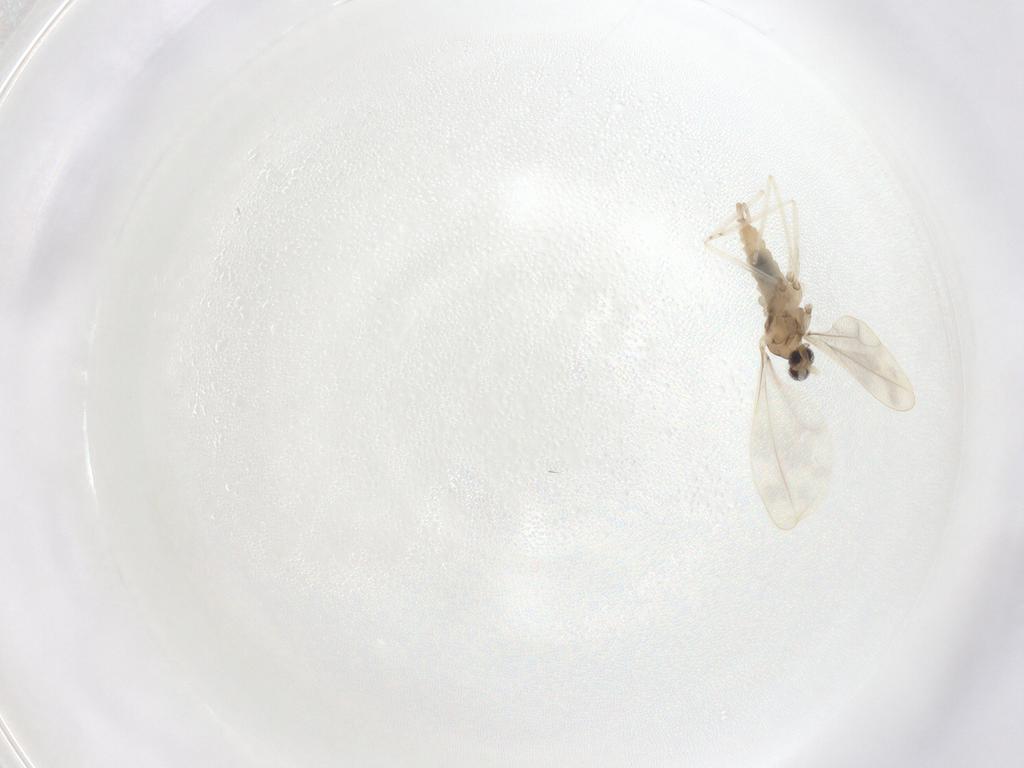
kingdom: Animalia
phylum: Arthropoda
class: Insecta
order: Diptera
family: Cecidomyiidae
